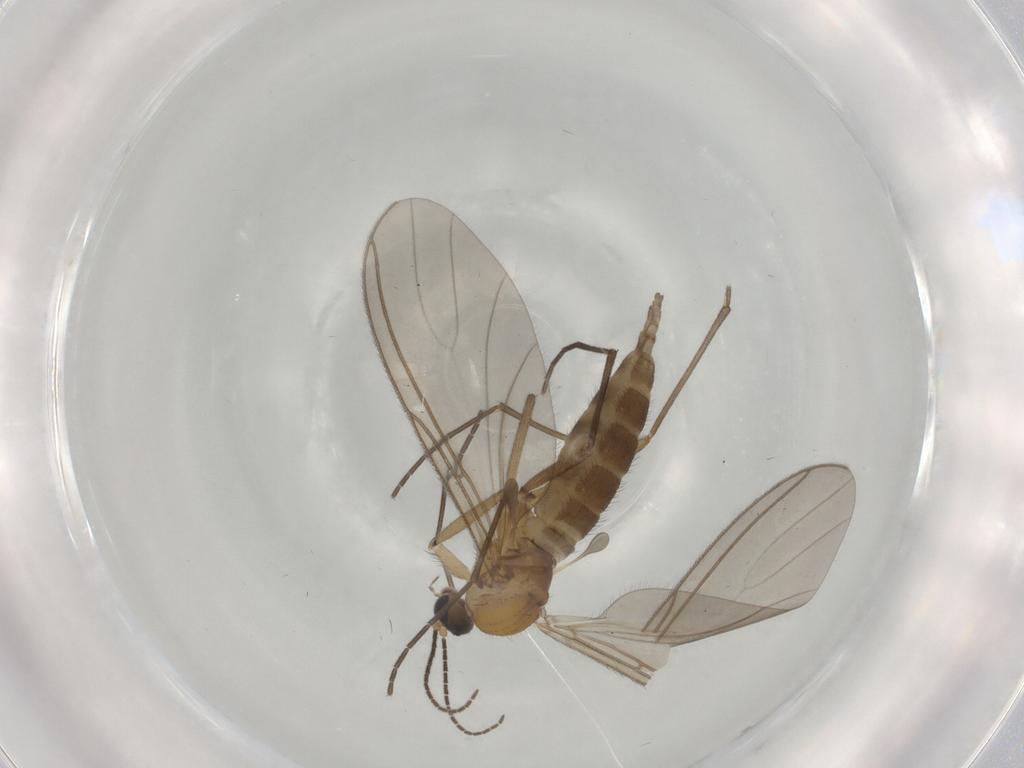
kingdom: Animalia
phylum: Arthropoda
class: Insecta
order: Diptera
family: Sciaridae
